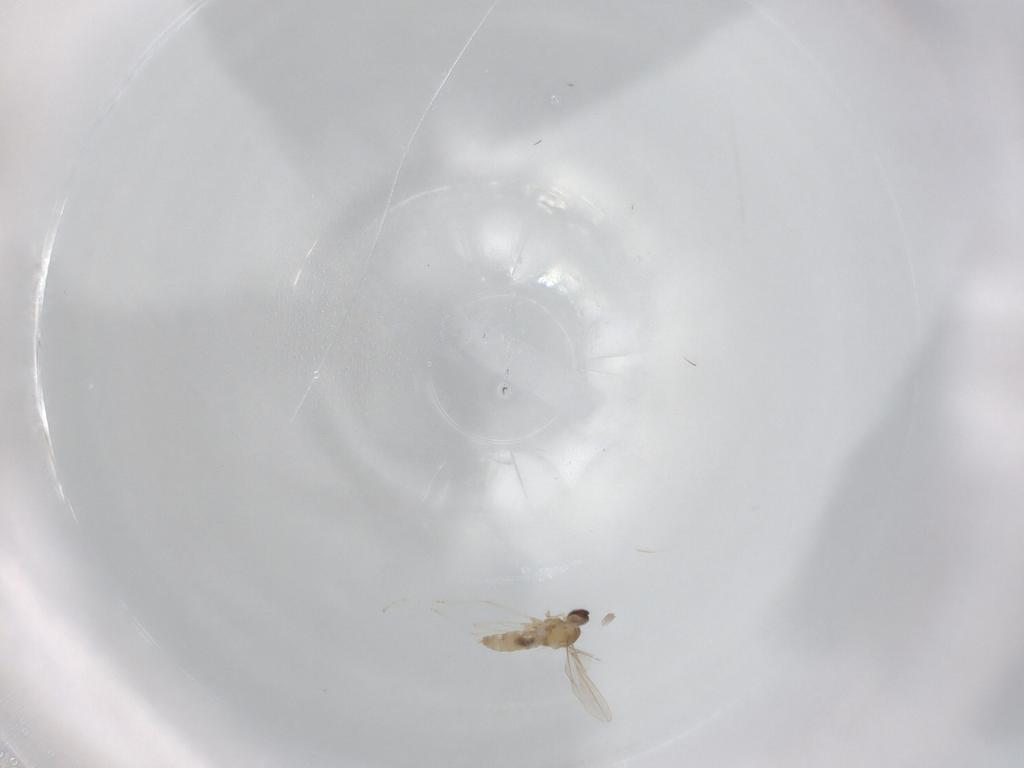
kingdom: Animalia
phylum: Arthropoda
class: Insecta
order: Diptera
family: Cecidomyiidae
